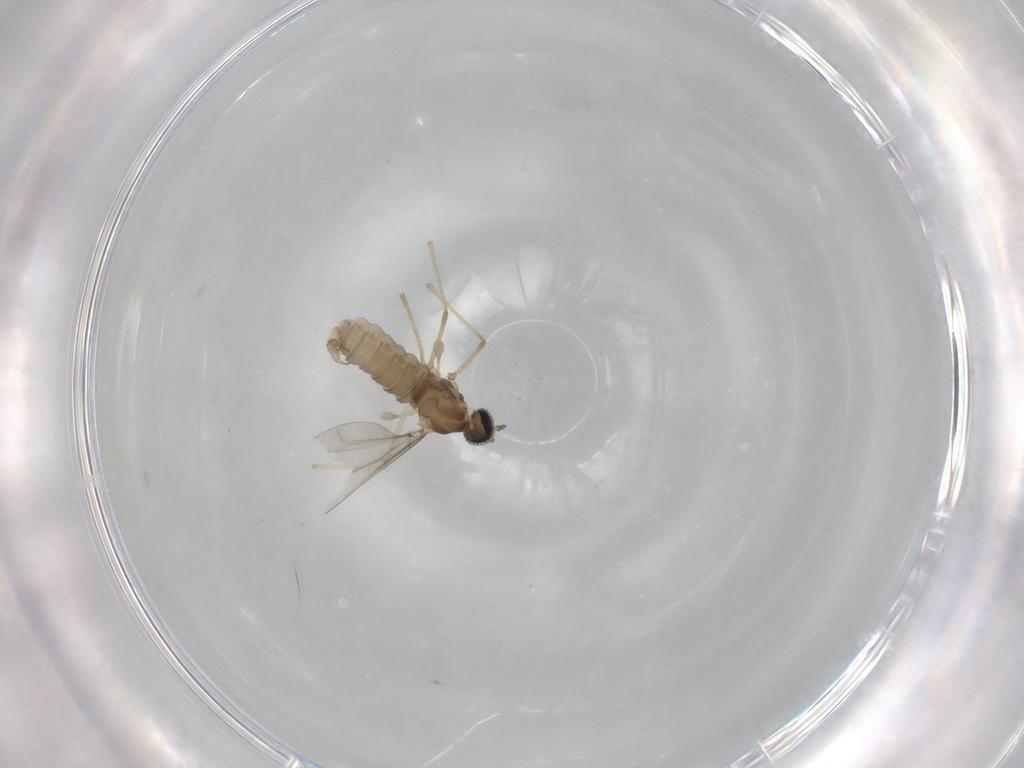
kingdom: Animalia
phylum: Arthropoda
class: Insecta
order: Diptera
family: Cecidomyiidae
